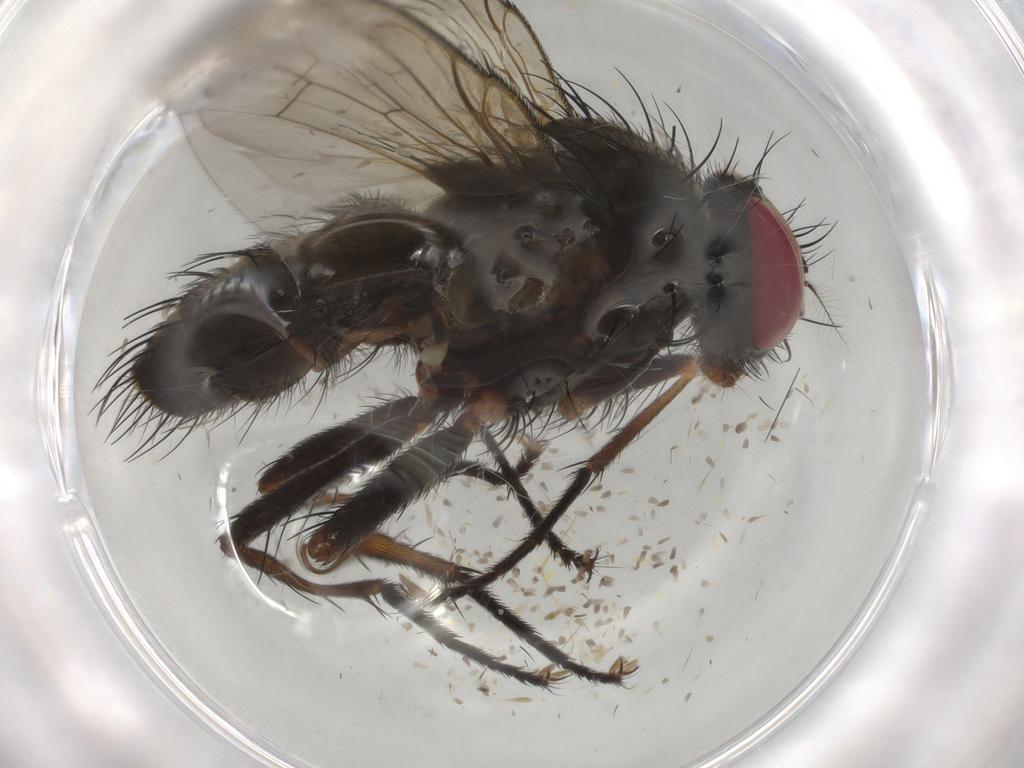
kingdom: Animalia
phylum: Arthropoda
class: Insecta
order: Diptera
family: Muscidae
